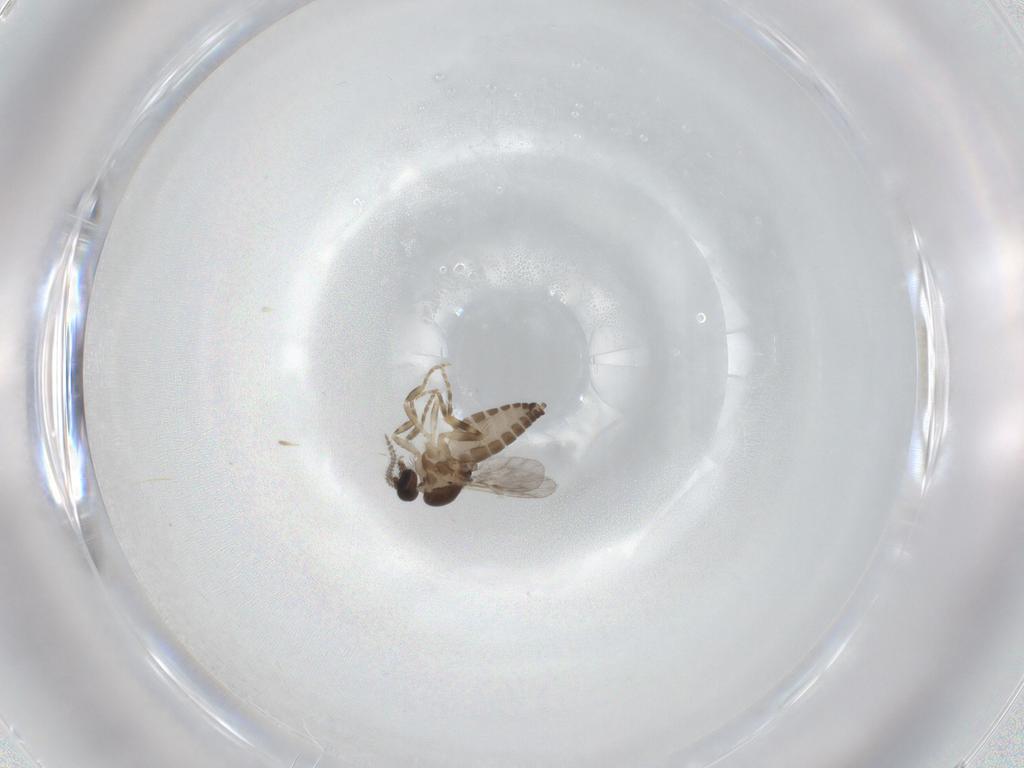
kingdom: Animalia
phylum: Arthropoda
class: Insecta
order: Diptera
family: Ceratopogonidae
